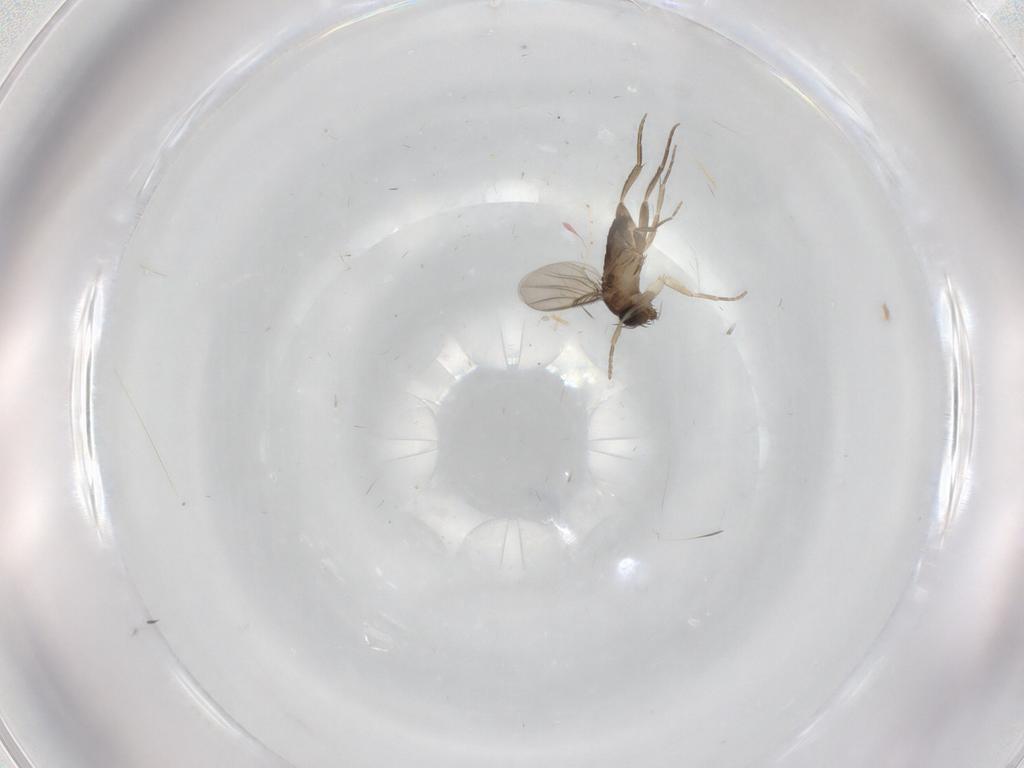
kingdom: Animalia
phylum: Arthropoda
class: Insecta
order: Diptera
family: Phoridae
